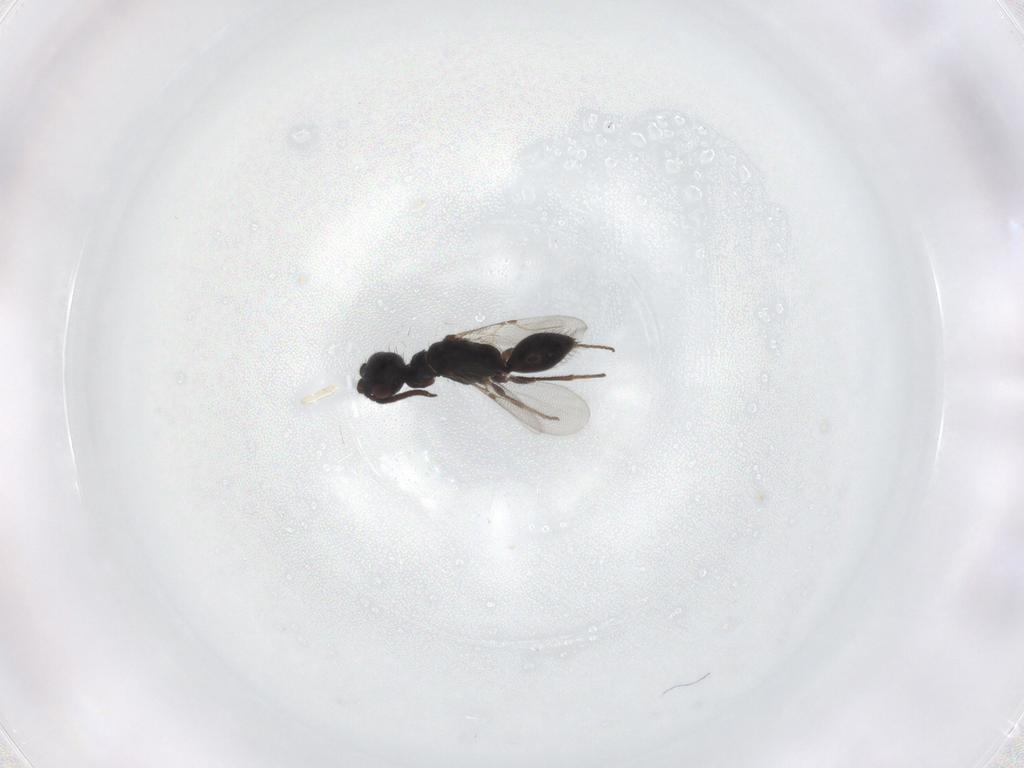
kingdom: Animalia
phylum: Arthropoda
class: Insecta
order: Hymenoptera
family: Bethylidae
